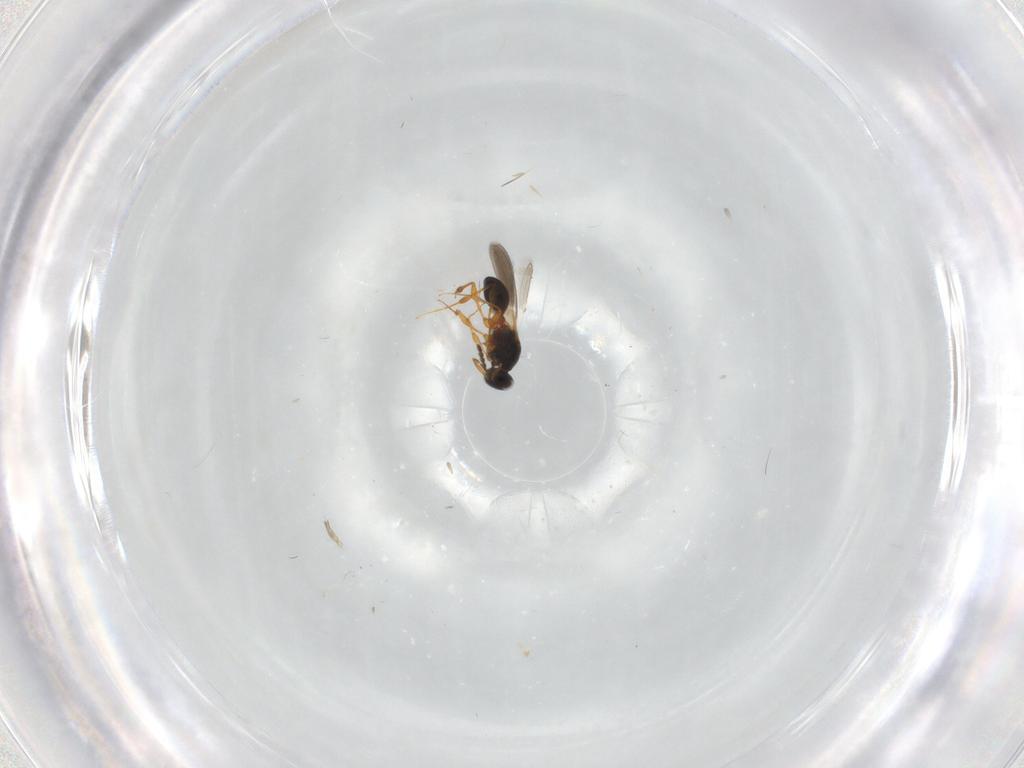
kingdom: Animalia
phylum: Arthropoda
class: Insecta
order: Hymenoptera
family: Platygastridae
